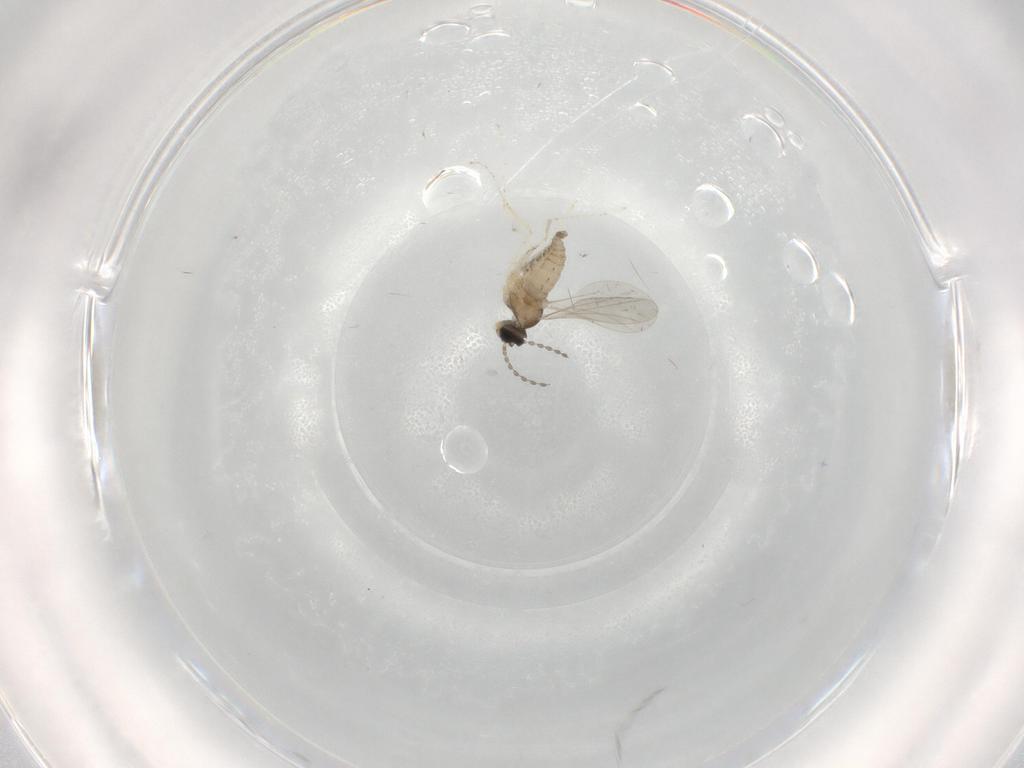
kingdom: Animalia
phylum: Arthropoda
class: Insecta
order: Diptera
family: Cecidomyiidae
